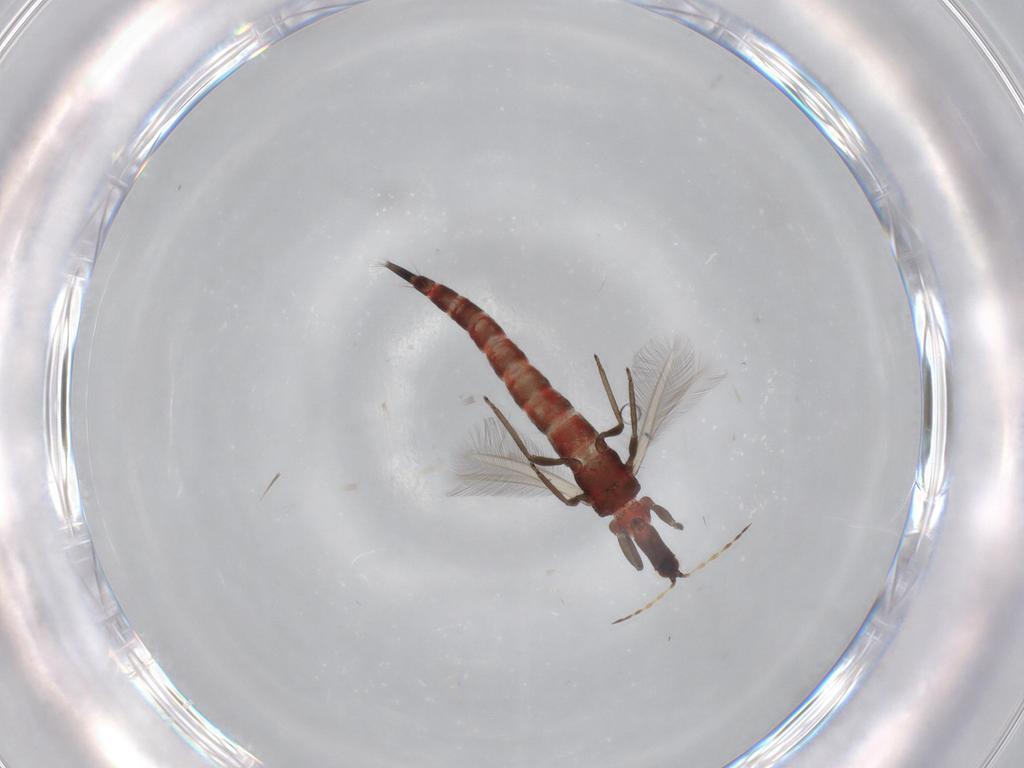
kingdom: Animalia
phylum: Arthropoda
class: Insecta
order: Thysanoptera
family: Phlaeothripidae
